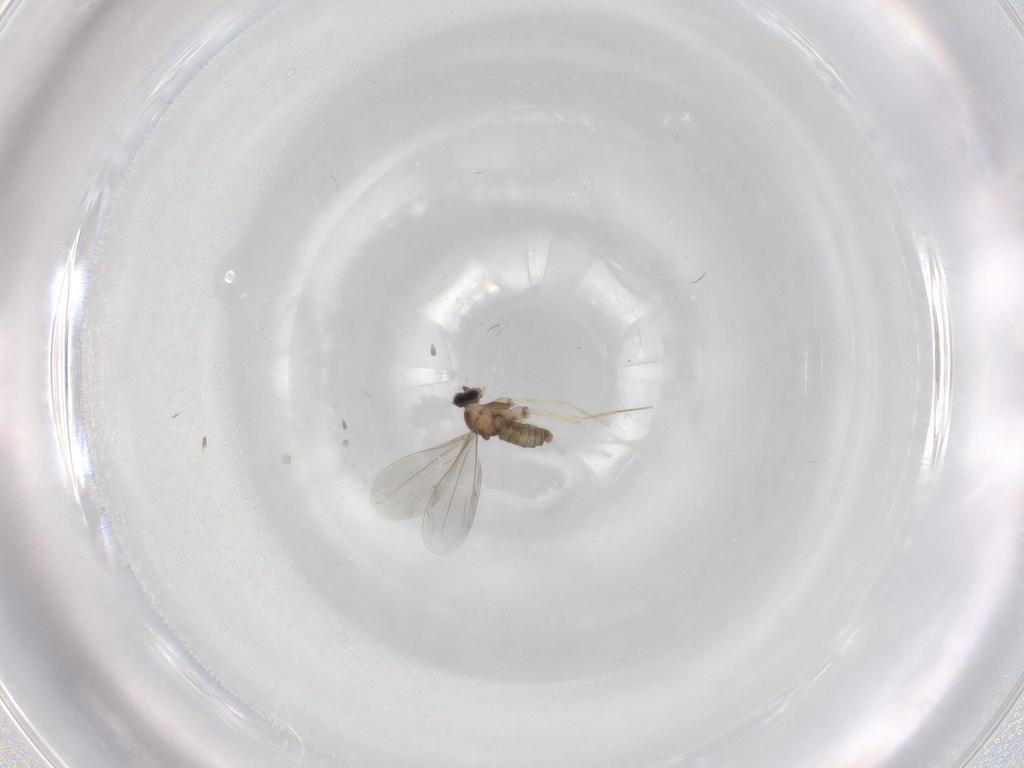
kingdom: Animalia
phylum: Arthropoda
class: Insecta
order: Diptera
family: Cecidomyiidae
